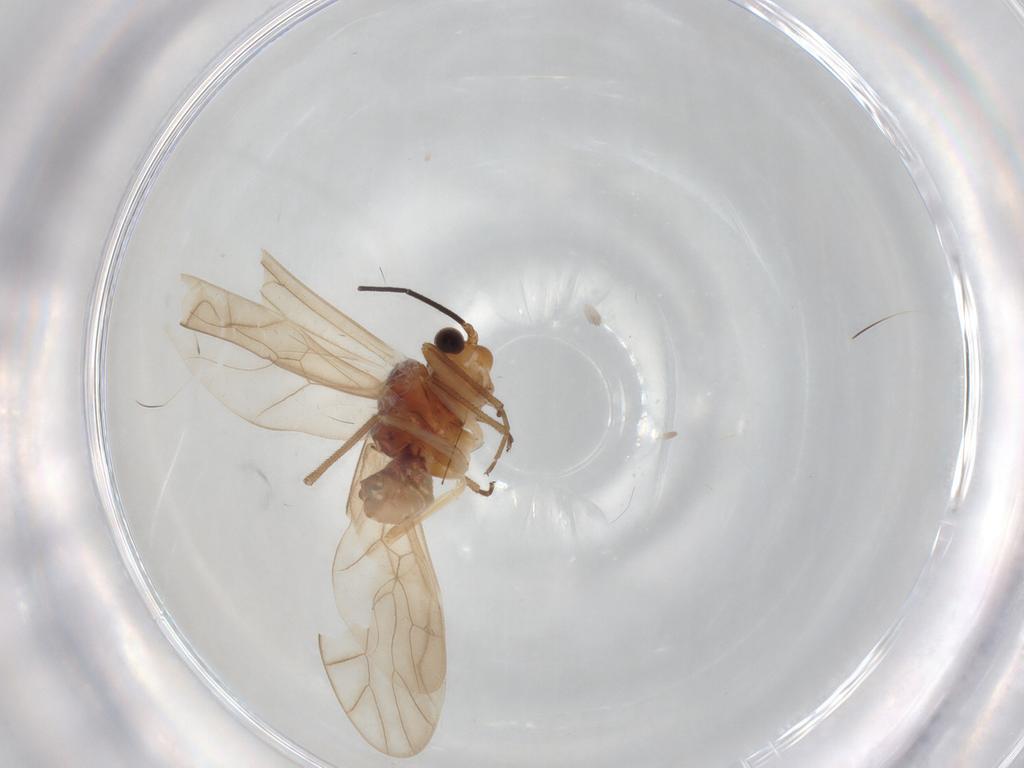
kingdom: Animalia
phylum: Arthropoda
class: Insecta
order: Psocodea
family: Caeciliusidae
